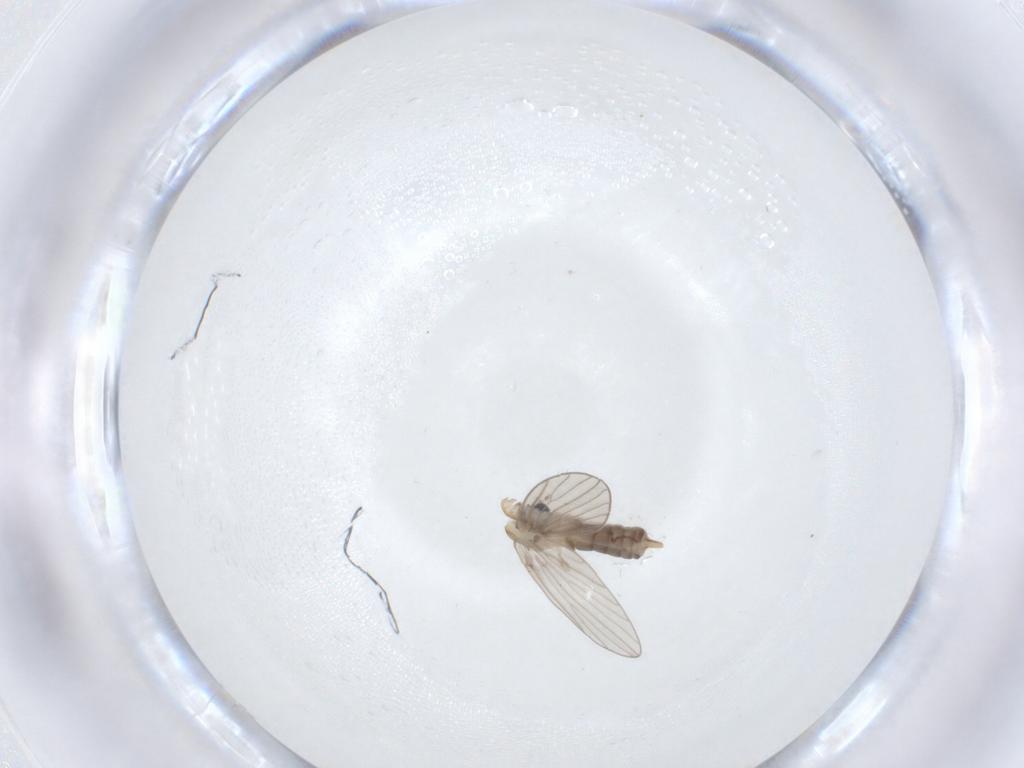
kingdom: Animalia
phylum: Arthropoda
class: Insecta
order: Diptera
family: Psychodidae
